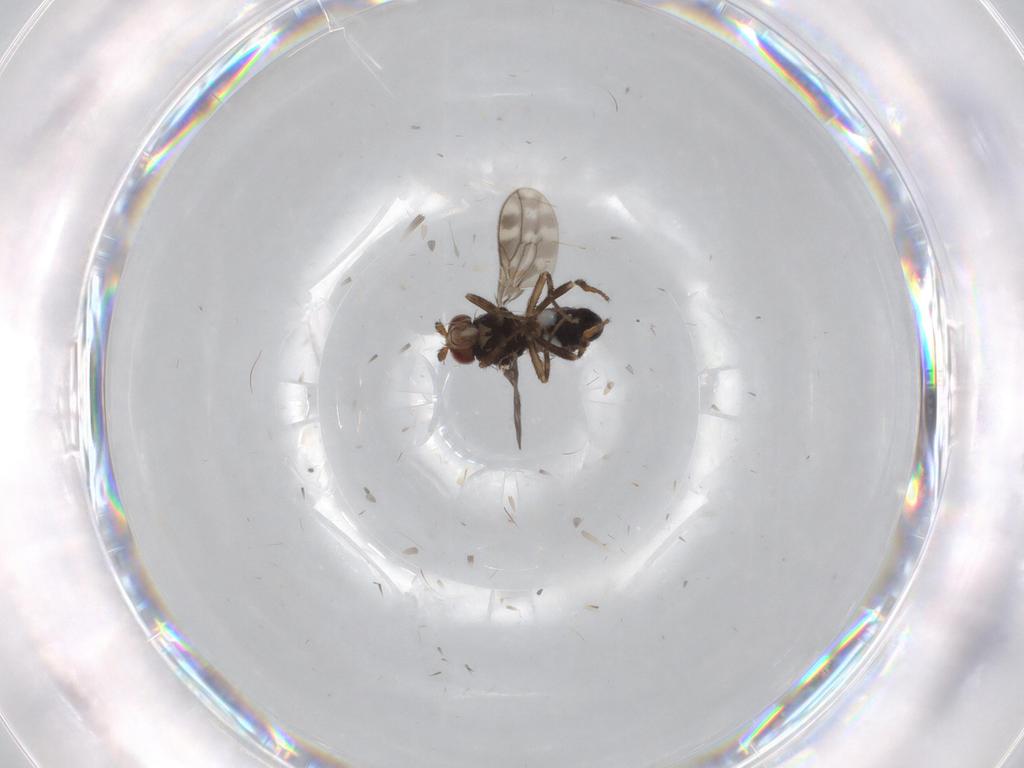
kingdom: Animalia
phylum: Arthropoda
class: Insecta
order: Diptera
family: Sphaeroceridae
